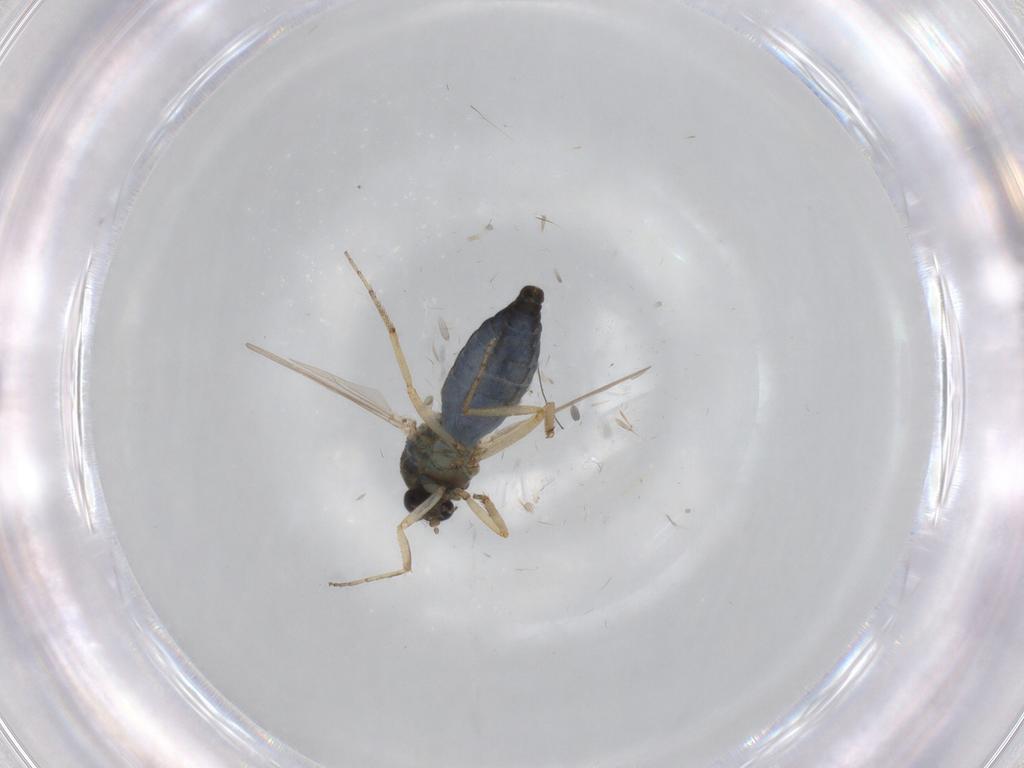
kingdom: Animalia
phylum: Arthropoda
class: Insecta
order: Diptera
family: Ceratopogonidae
